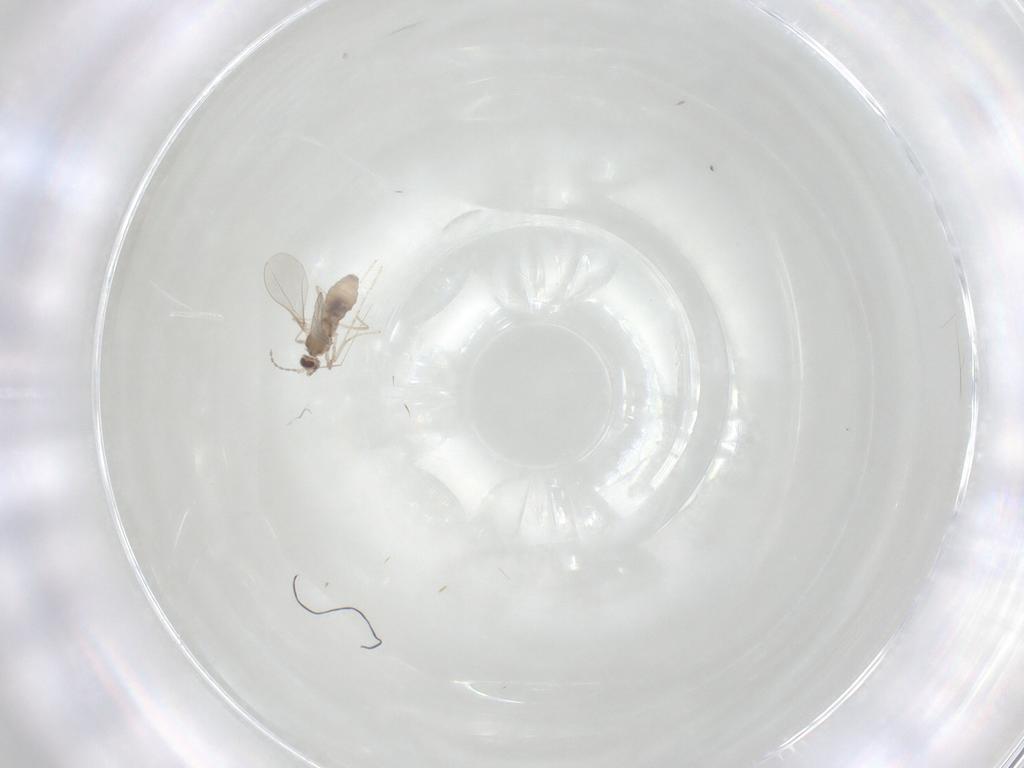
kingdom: Animalia
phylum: Arthropoda
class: Insecta
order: Diptera
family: Cecidomyiidae
